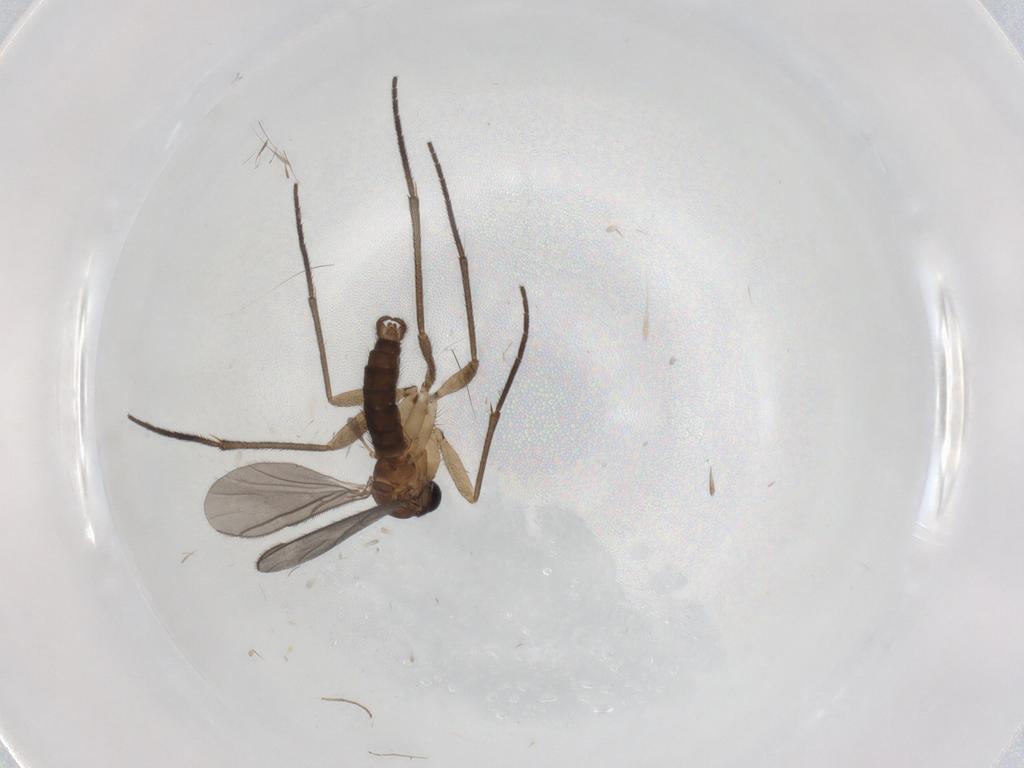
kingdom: Animalia
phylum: Arthropoda
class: Insecta
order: Diptera
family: Sciaridae
